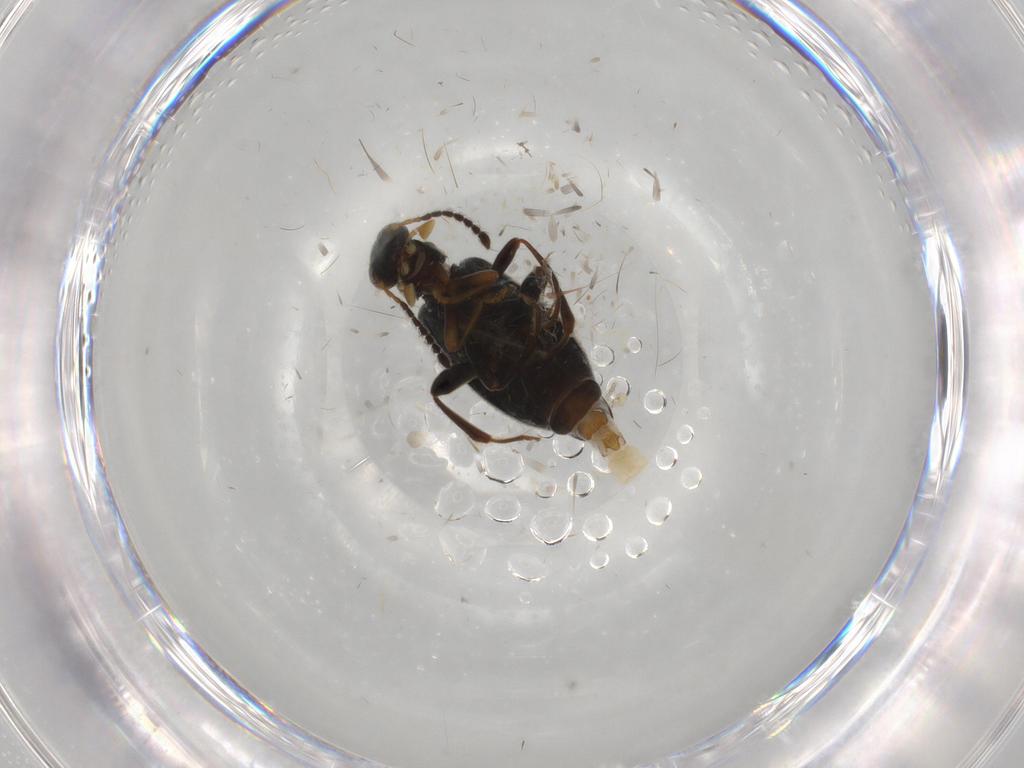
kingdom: Animalia
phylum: Arthropoda
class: Insecta
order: Coleoptera
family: Aderidae
